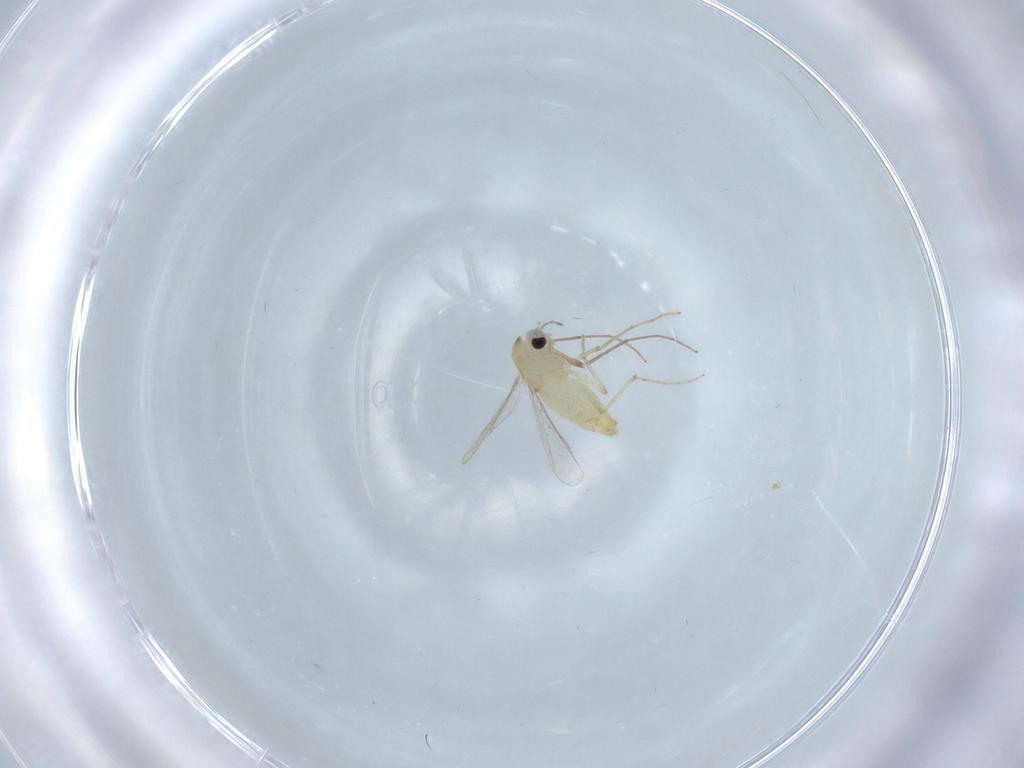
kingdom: Animalia
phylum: Arthropoda
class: Insecta
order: Diptera
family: Chironomidae
